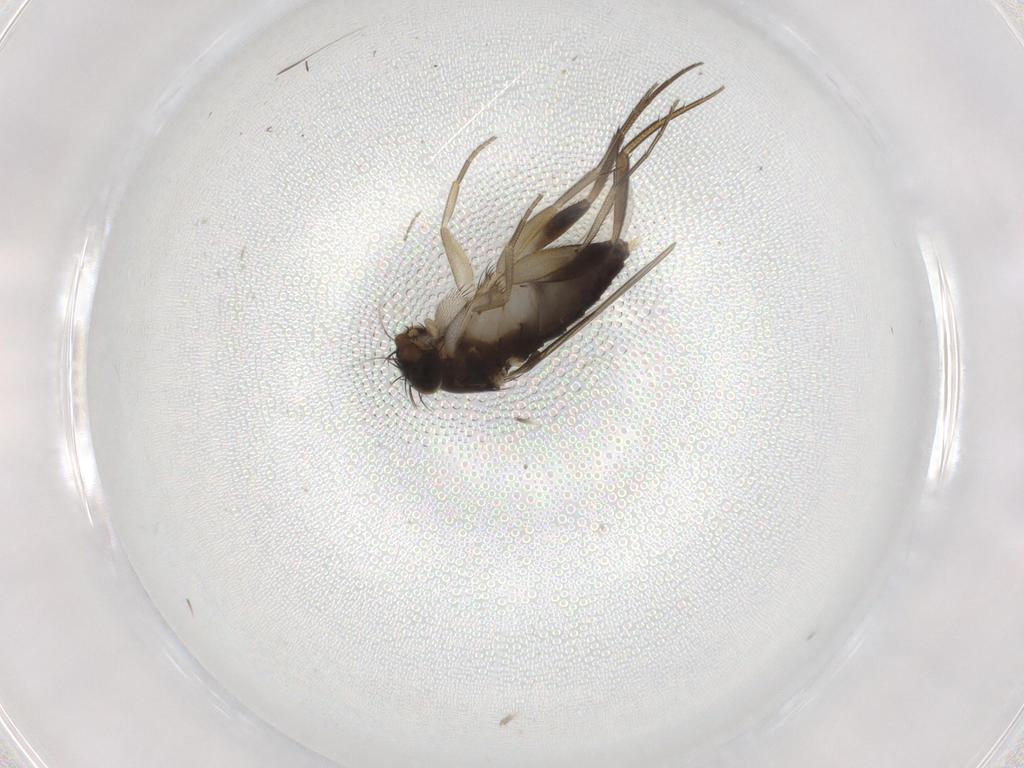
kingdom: Animalia
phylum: Arthropoda
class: Insecta
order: Diptera
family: Phoridae
